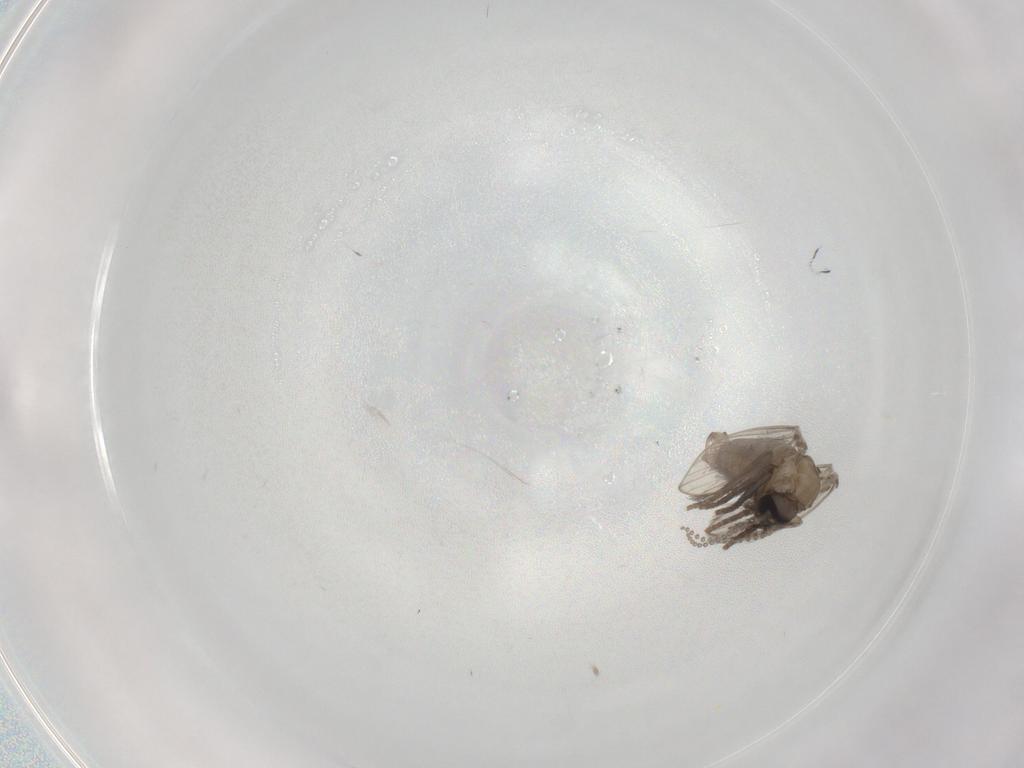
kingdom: Animalia
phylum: Arthropoda
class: Insecta
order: Diptera
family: Psychodidae
